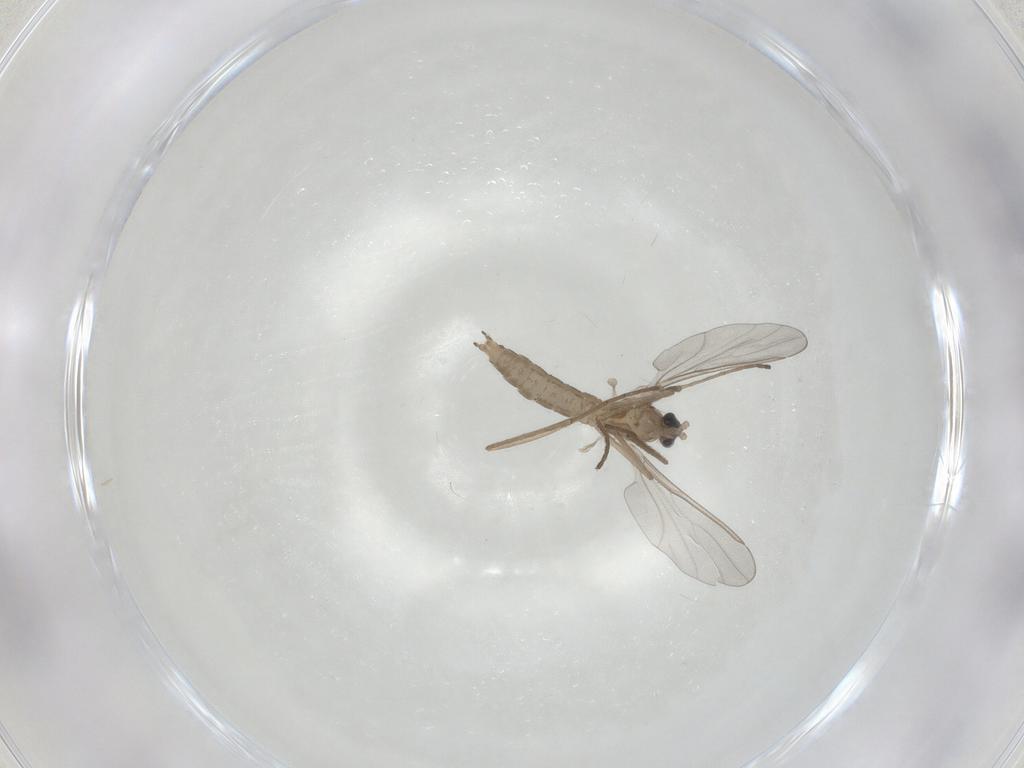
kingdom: Animalia
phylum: Arthropoda
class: Insecta
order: Diptera
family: Cecidomyiidae
